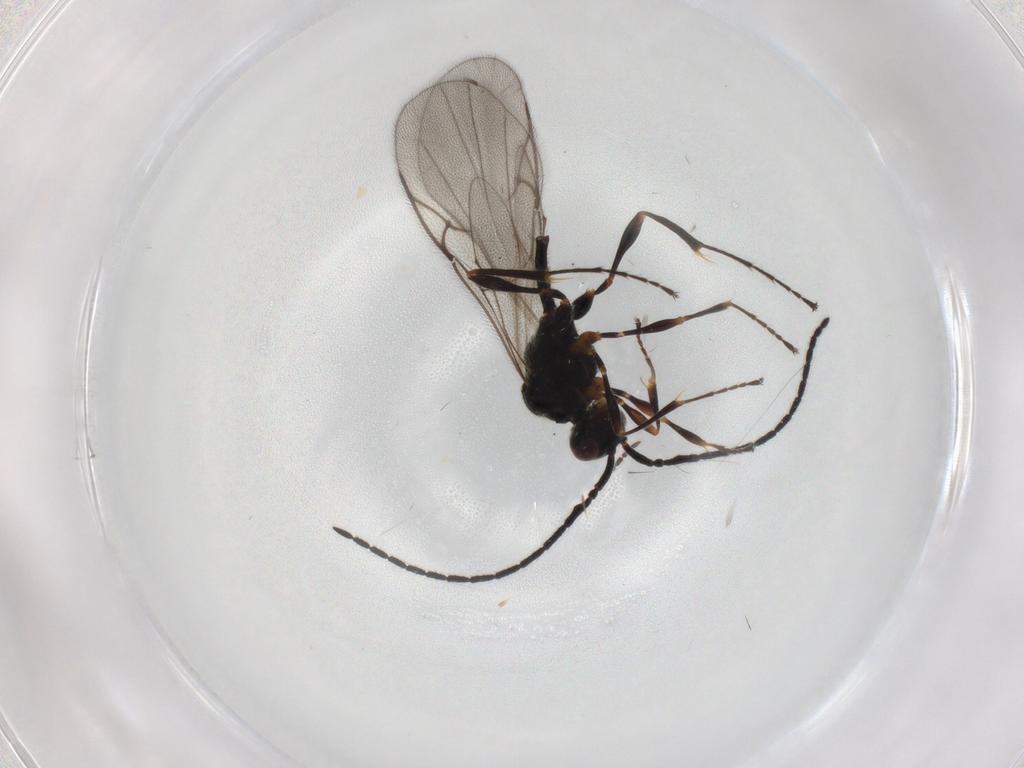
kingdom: Animalia
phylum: Arthropoda
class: Insecta
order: Hymenoptera
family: Diapriidae
